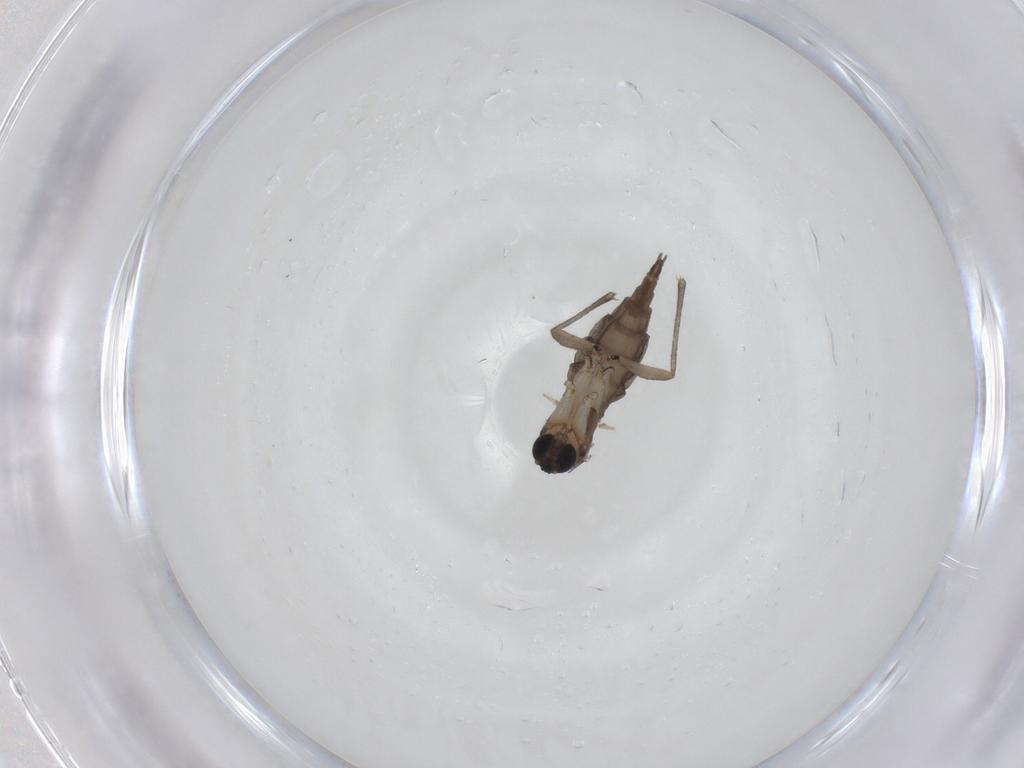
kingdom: Animalia
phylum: Arthropoda
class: Insecta
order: Diptera
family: Sciaridae
